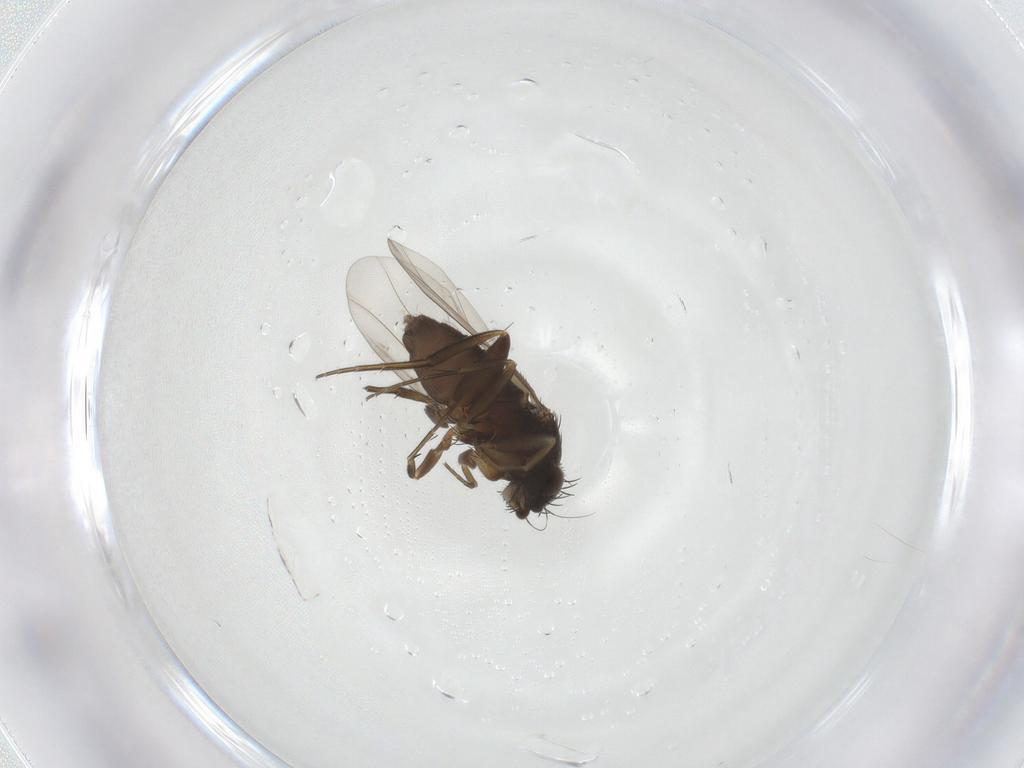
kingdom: Animalia
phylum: Arthropoda
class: Insecta
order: Diptera
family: Phoridae
